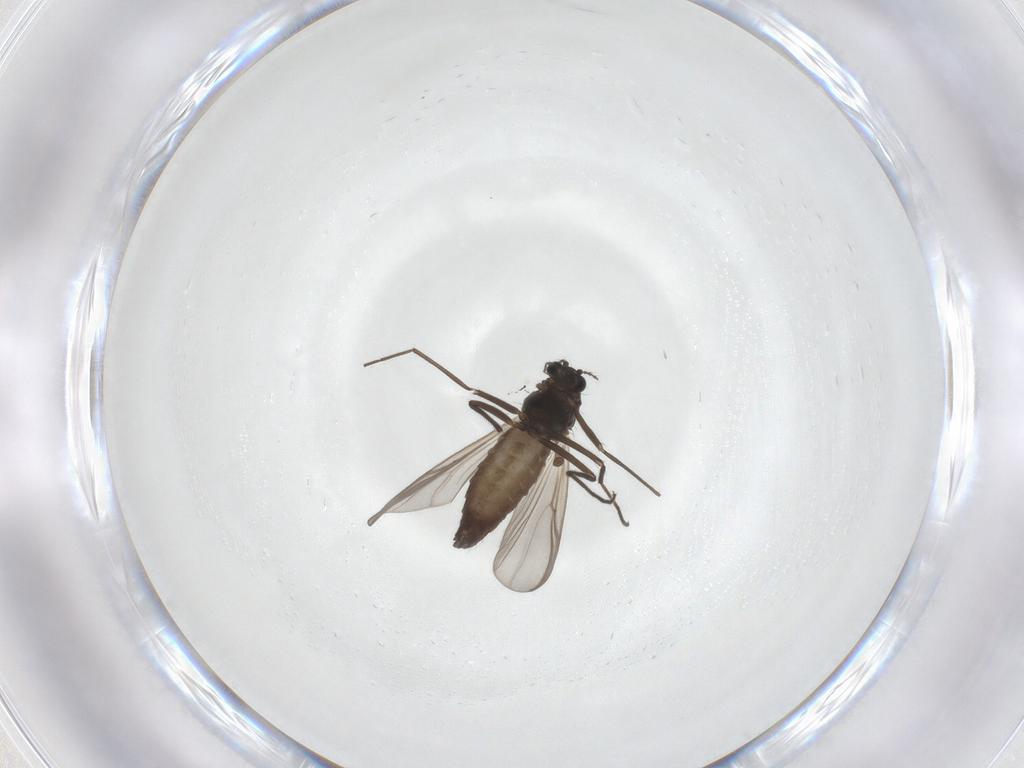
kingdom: Animalia
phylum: Arthropoda
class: Insecta
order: Diptera
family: Chironomidae
